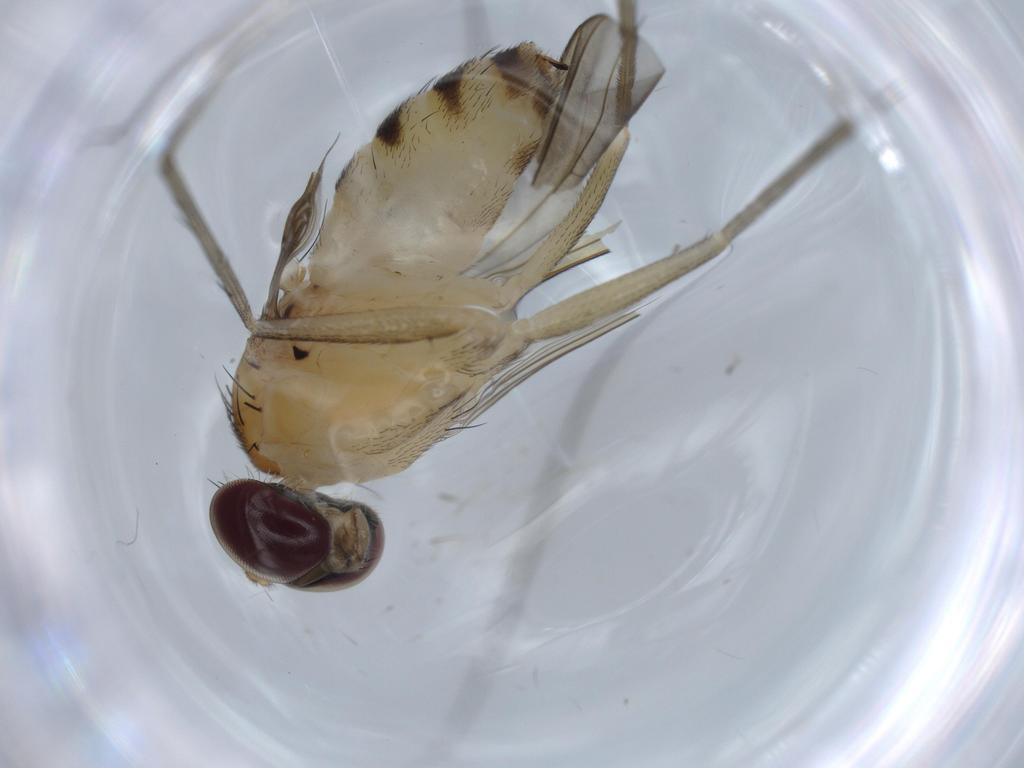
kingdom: Animalia
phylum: Arthropoda
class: Insecta
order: Diptera
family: Dolichopodidae
